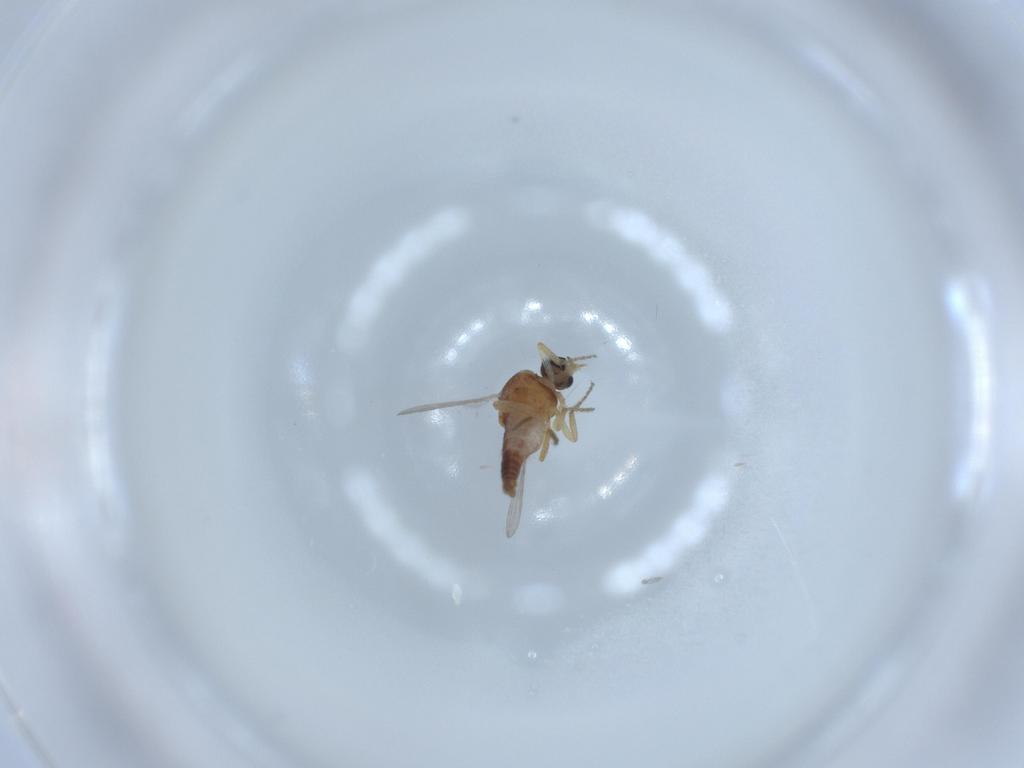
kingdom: Animalia
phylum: Arthropoda
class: Insecta
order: Diptera
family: Ceratopogonidae
